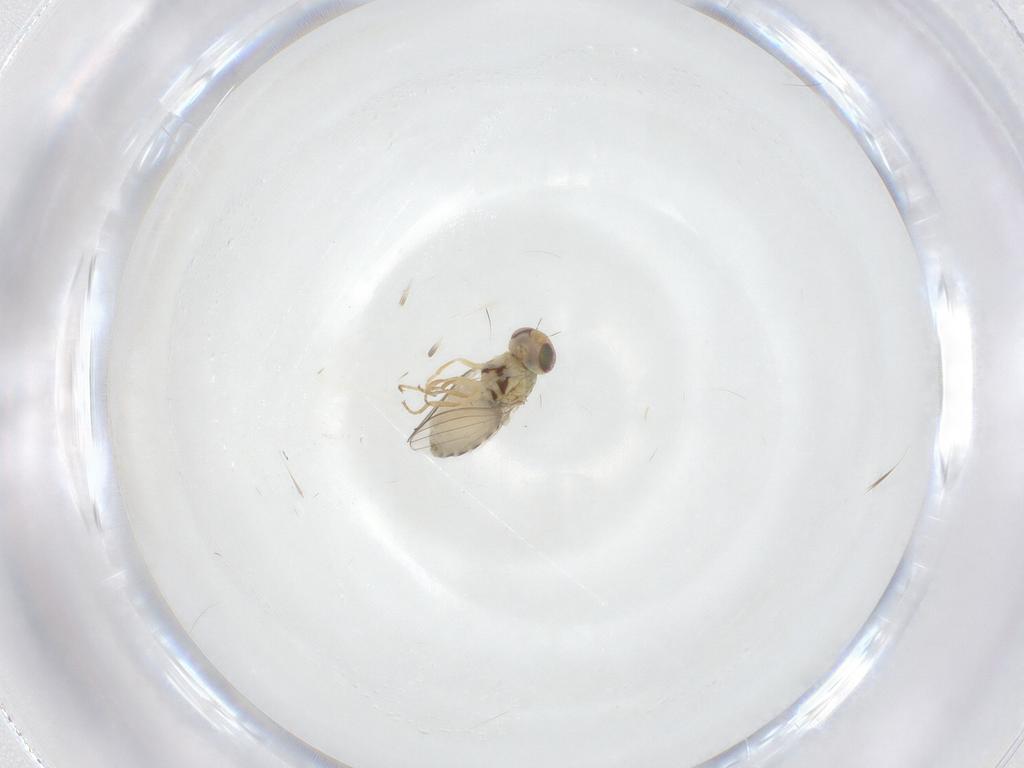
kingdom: Animalia
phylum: Arthropoda
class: Insecta
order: Diptera
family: Chyromyidae
